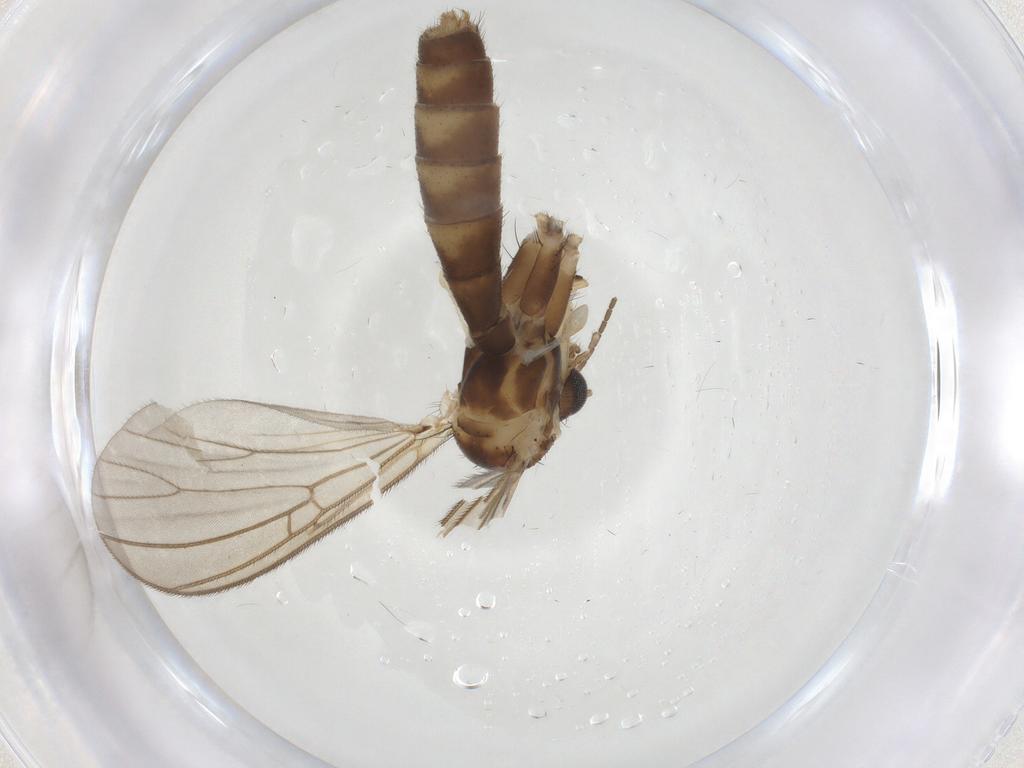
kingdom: Animalia
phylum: Arthropoda
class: Insecta
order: Diptera
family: Mycetophilidae
